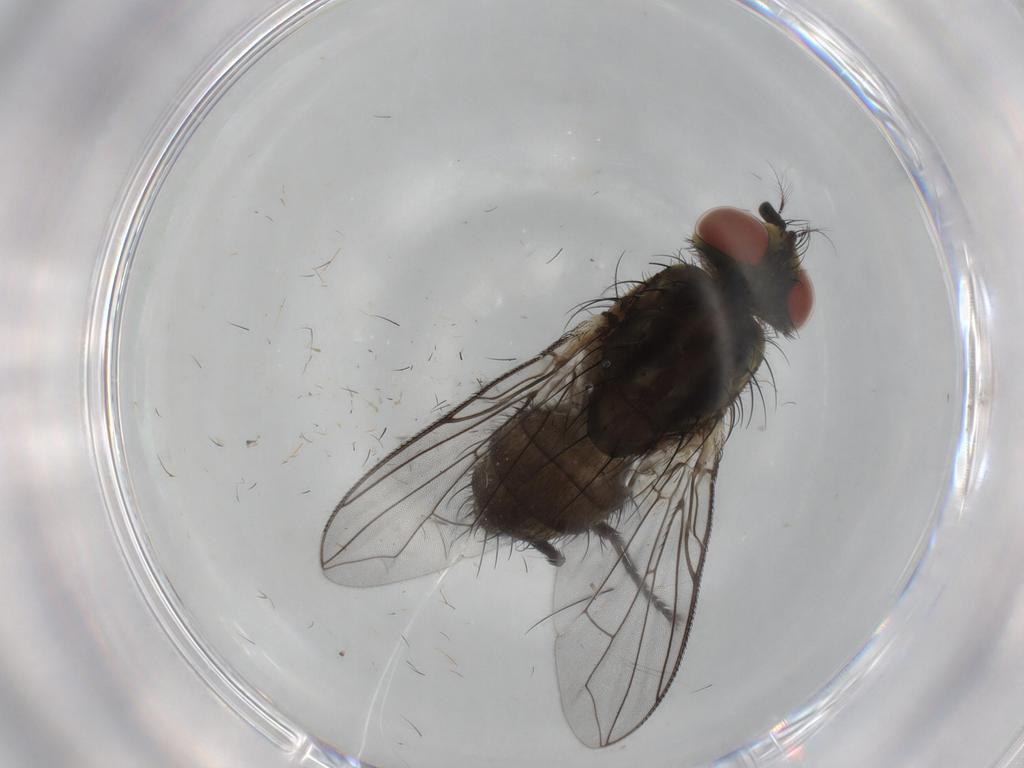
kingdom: Animalia
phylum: Arthropoda
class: Insecta
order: Diptera
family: Sarcophagidae
